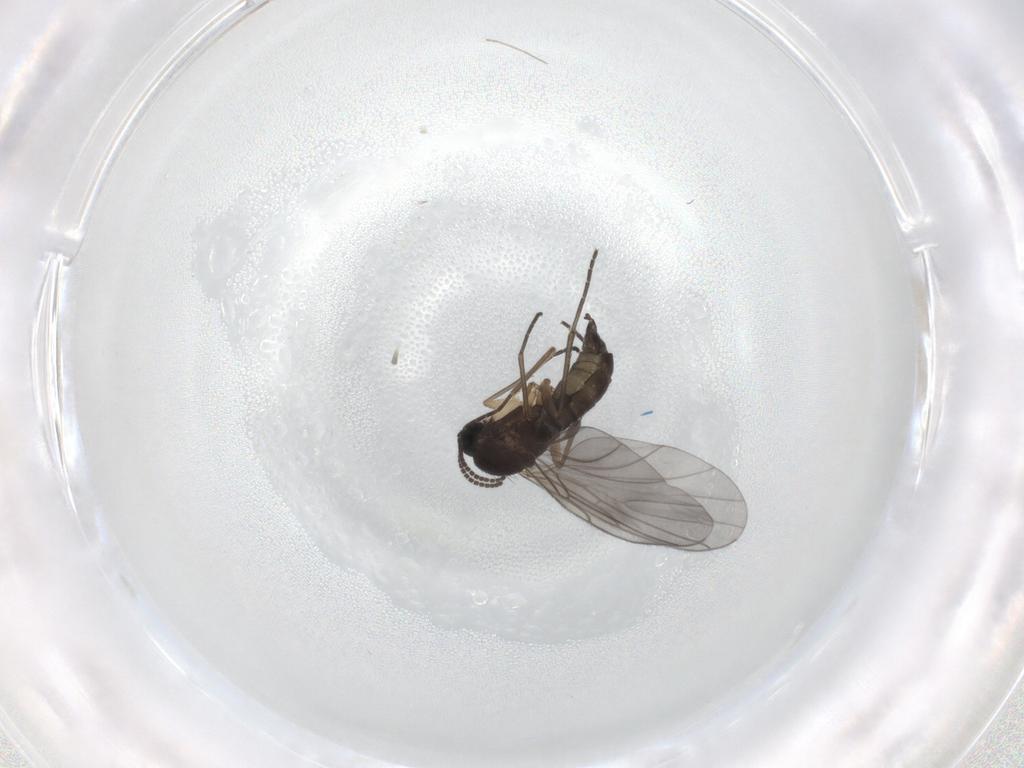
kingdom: Animalia
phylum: Arthropoda
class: Insecta
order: Diptera
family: Sciaridae
